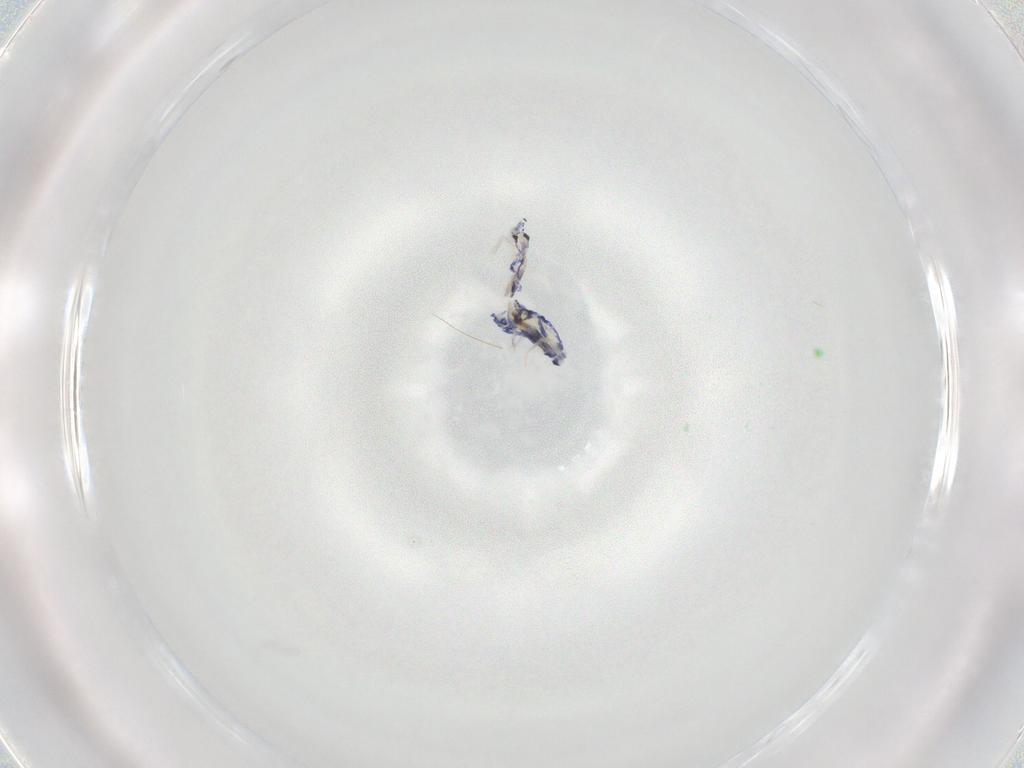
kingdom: Animalia
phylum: Arthropoda
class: Collembola
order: Entomobryomorpha
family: Entomobryidae
